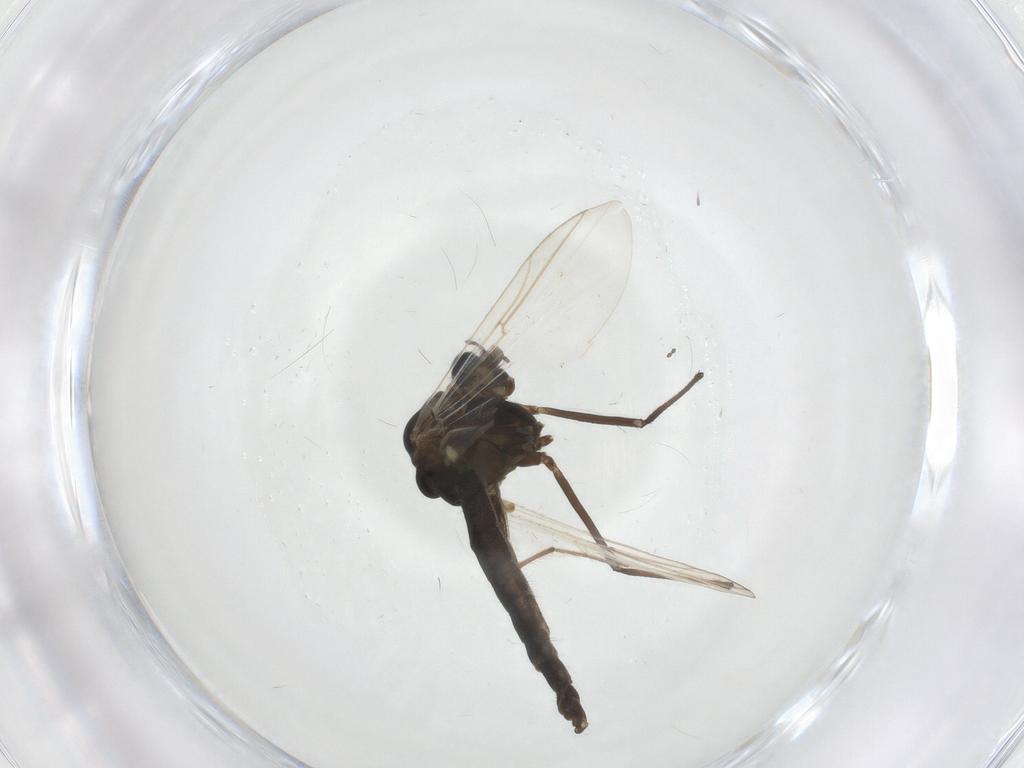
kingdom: Animalia
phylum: Arthropoda
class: Insecta
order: Diptera
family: Chironomidae
